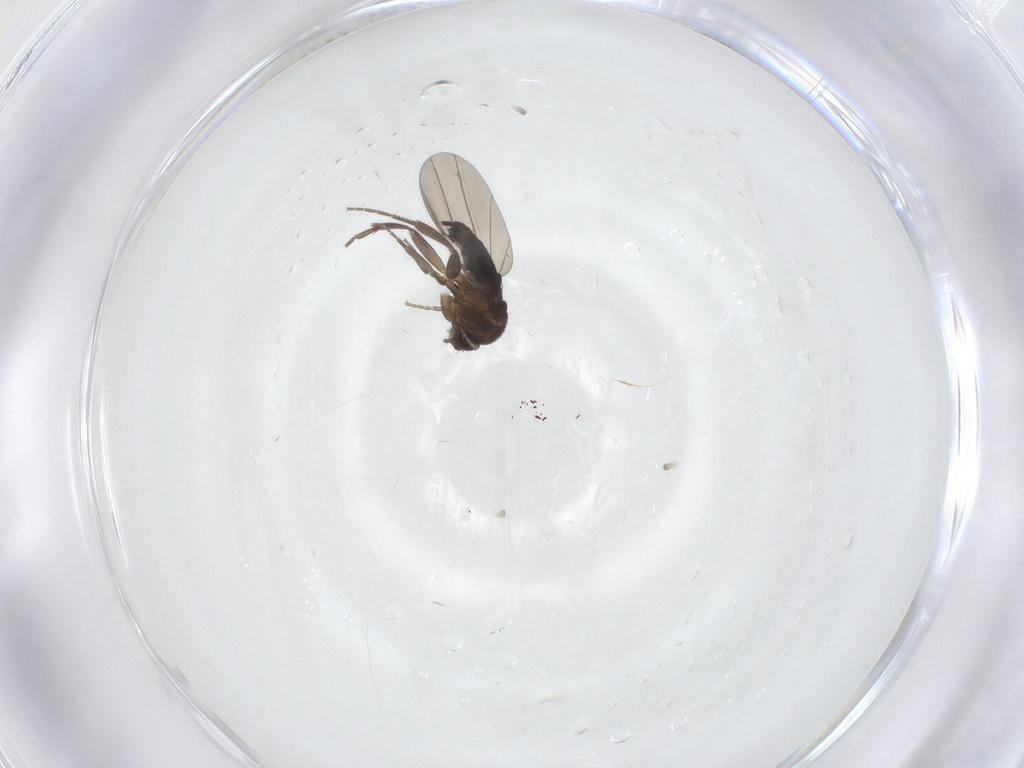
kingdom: Animalia
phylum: Arthropoda
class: Insecta
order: Diptera
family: Phoridae
